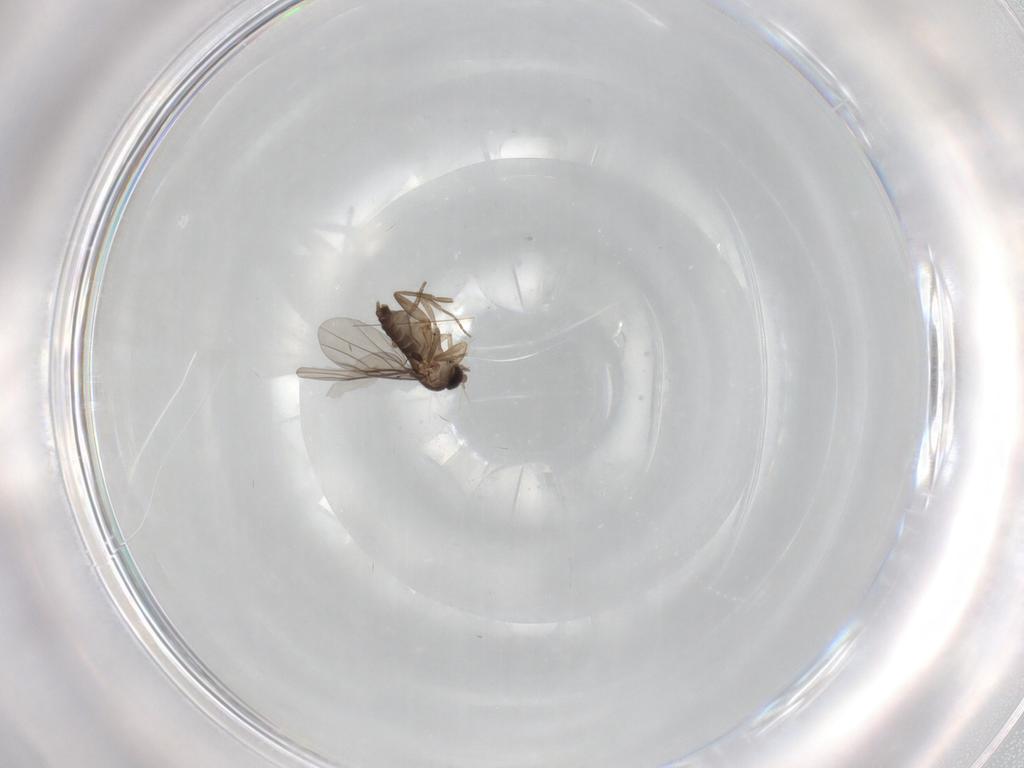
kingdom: Animalia
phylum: Arthropoda
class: Insecta
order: Diptera
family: Phoridae
